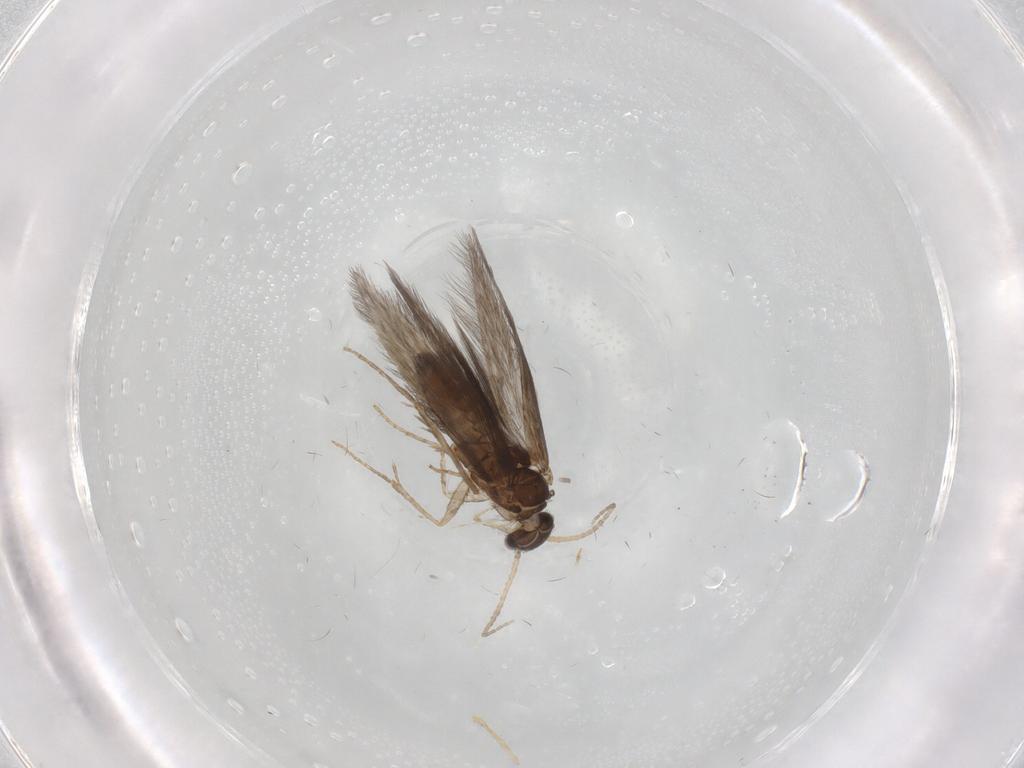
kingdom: Animalia
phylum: Arthropoda
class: Insecta
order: Trichoptera
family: Hydroptilidae
